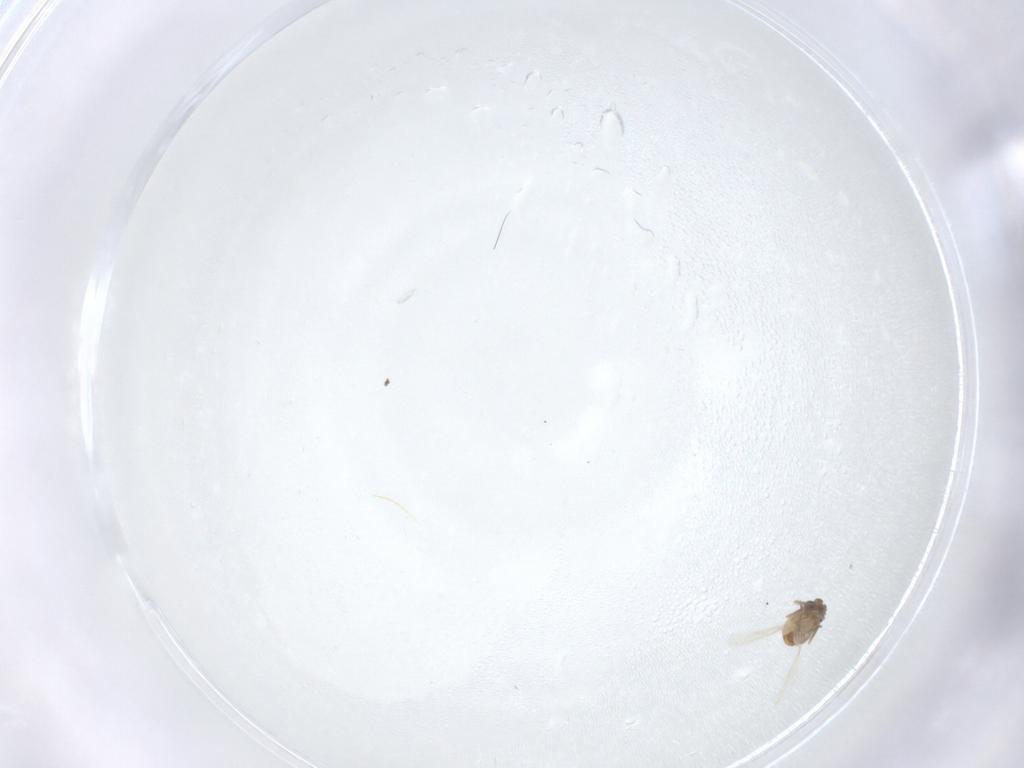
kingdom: Animalia
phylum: Arthropoda
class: Insecta
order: Diptera
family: Ceratopogonidae
